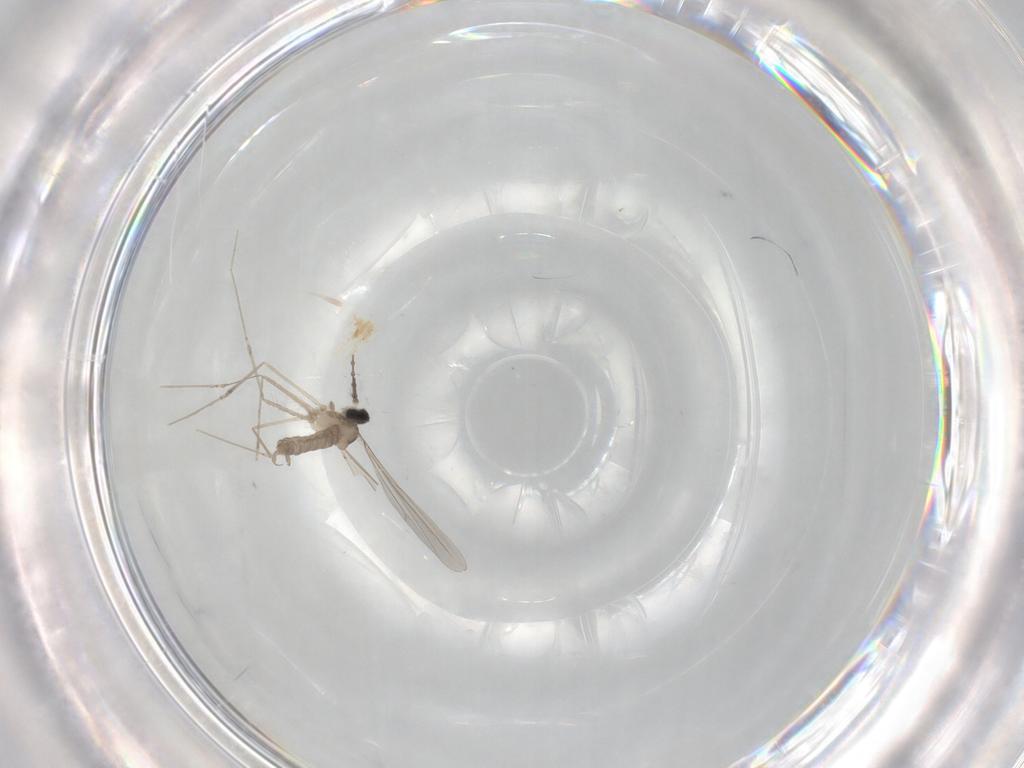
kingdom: Animalia
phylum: Arthropoda
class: Insecta
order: Diptera
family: Cecidomyiidae
